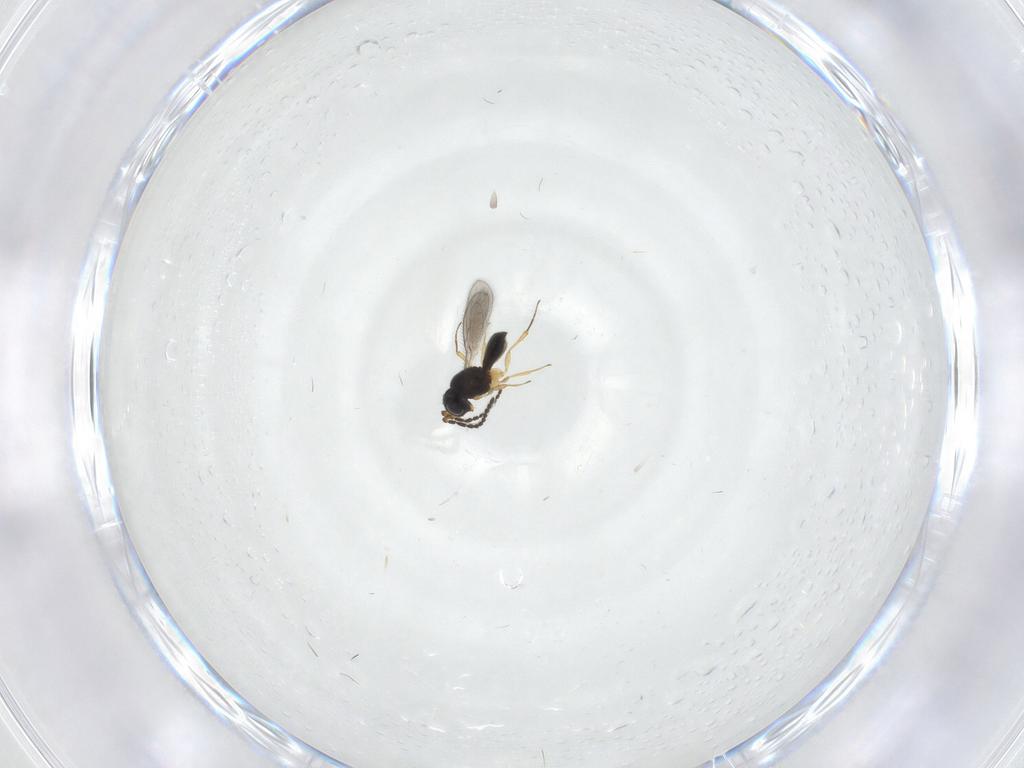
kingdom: Animalia
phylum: Arthropoda
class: Insecta
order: Hymenoptera
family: Scelionidae
